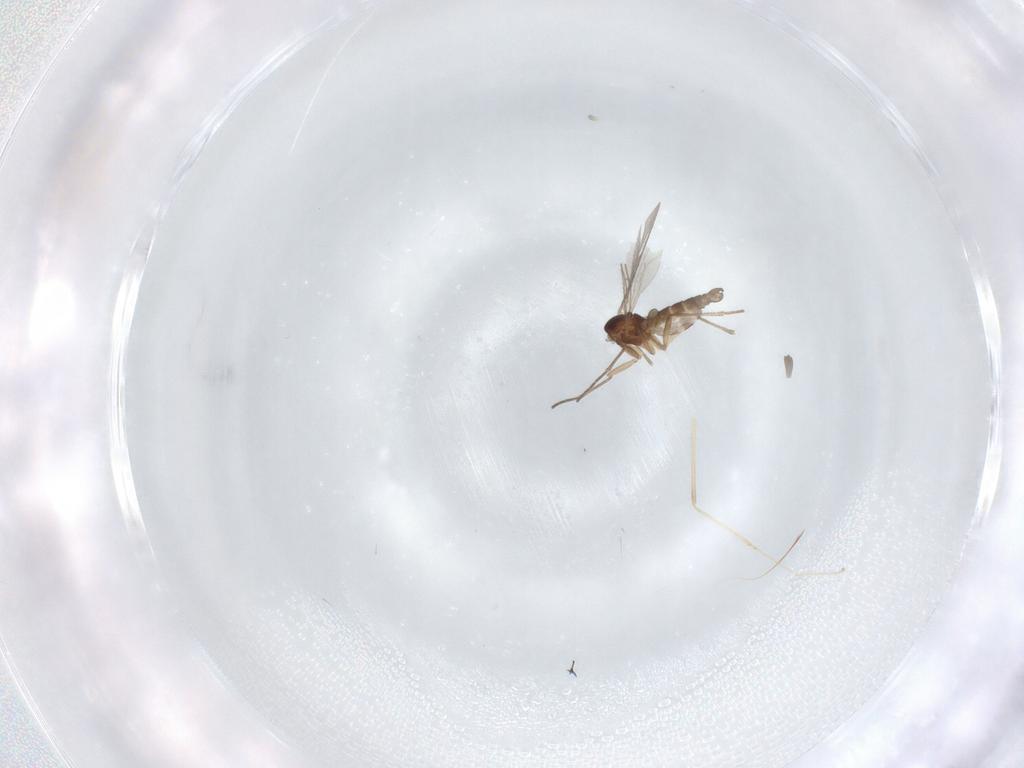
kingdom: Animalia
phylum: Arthropoda
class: Insecta
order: Diptera
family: Sciaridae
